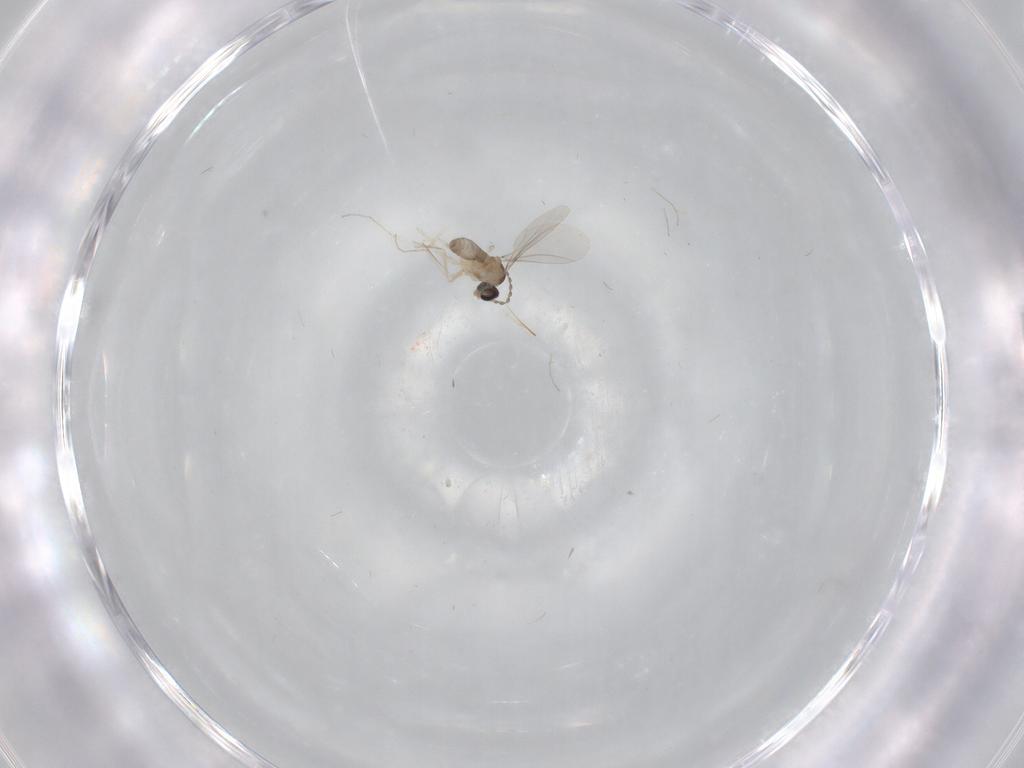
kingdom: Animalia
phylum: Arthropoda
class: Insecta
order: Diptera
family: Cecidomyiidae
